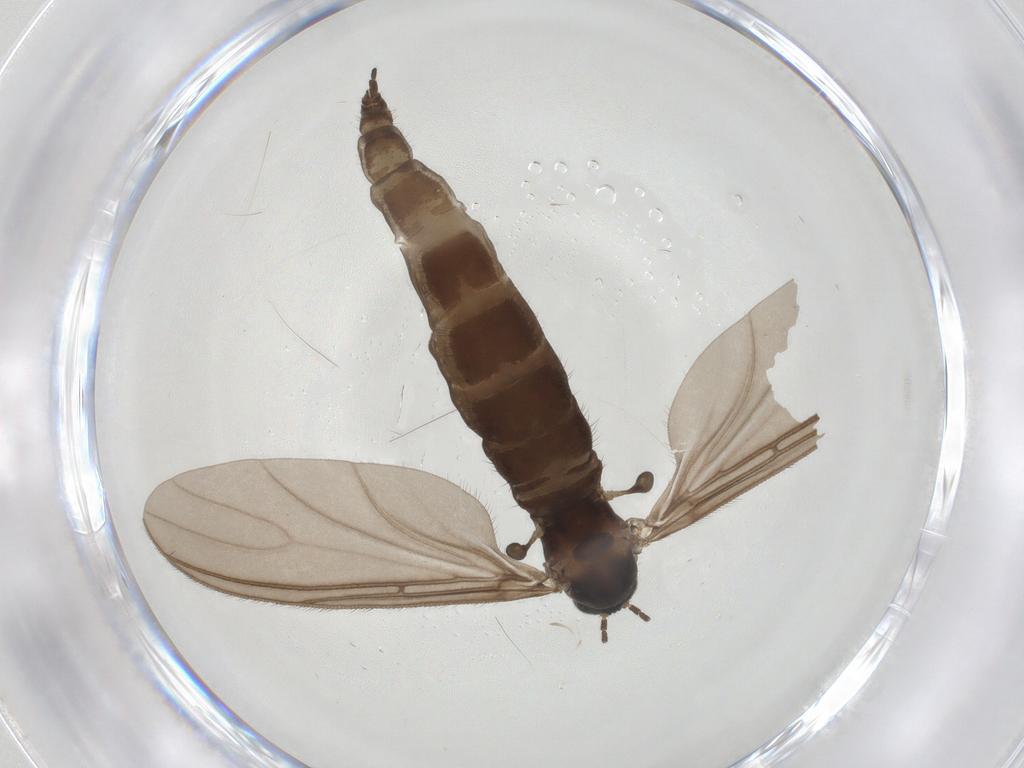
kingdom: Animalia
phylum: Arthropoda
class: Insecta
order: Diptera
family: Sciaridae
